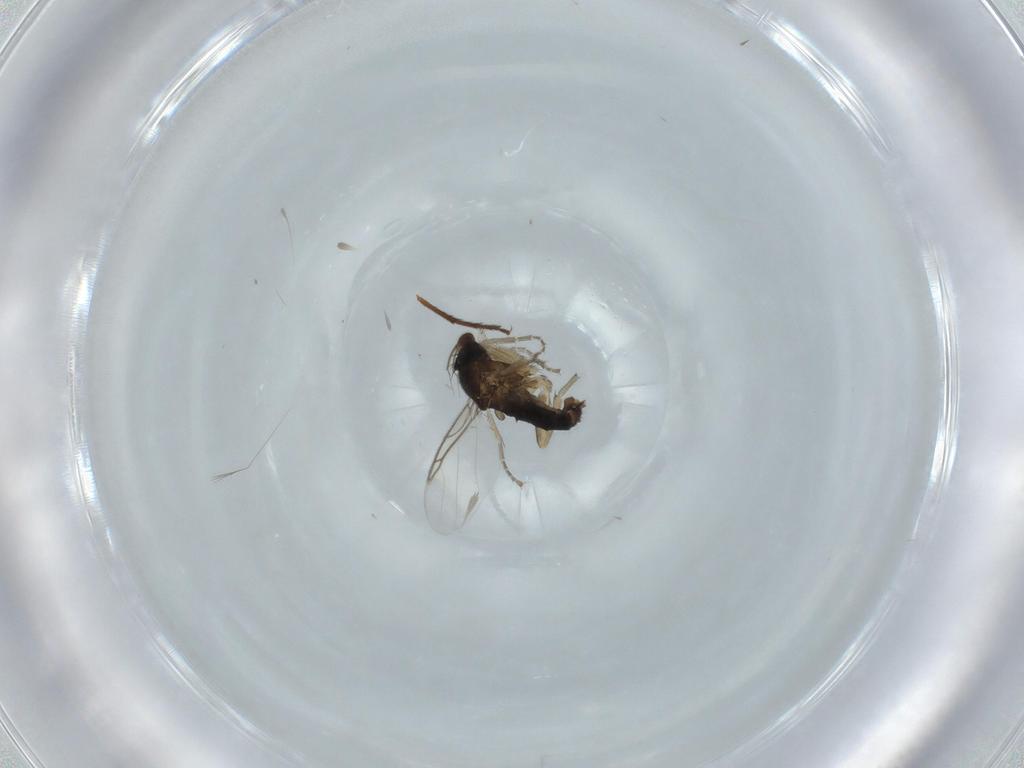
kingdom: Animalia
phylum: Arthropoda
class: Insecta
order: Diptera
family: Phoridae
